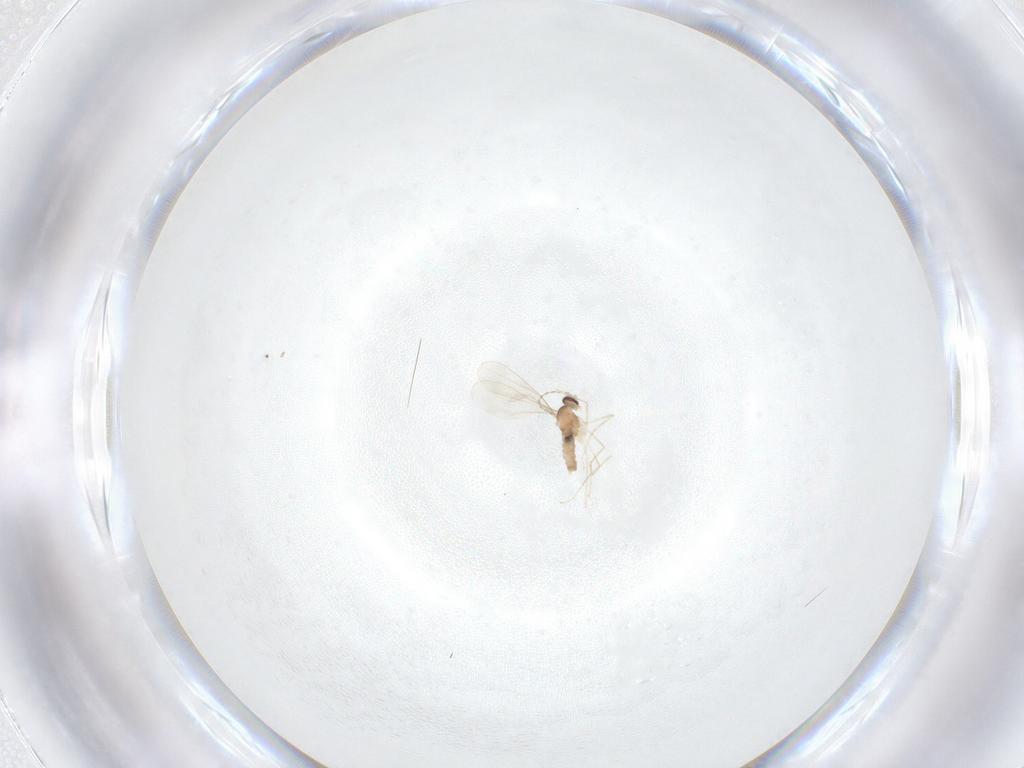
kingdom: Animalia
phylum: Arthropoda
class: Insecta
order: Diptera
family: Cecidomyiidae
